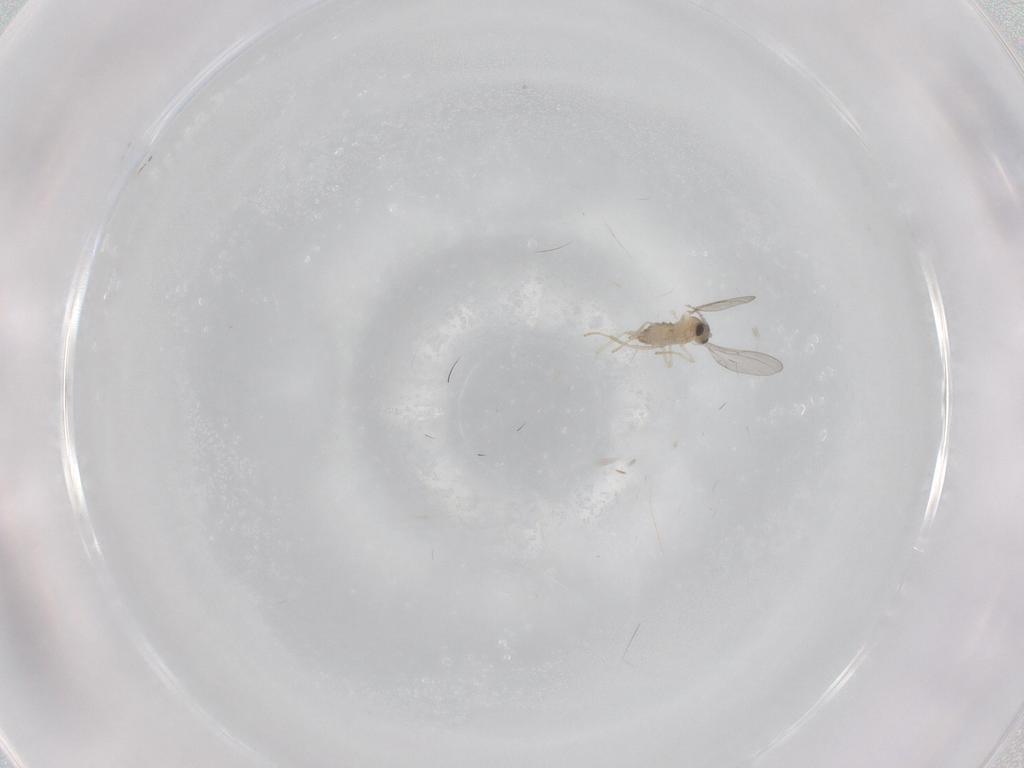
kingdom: Animalia
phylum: Arthropoda
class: Insecta
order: Diptera
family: Cecidomyiidae
